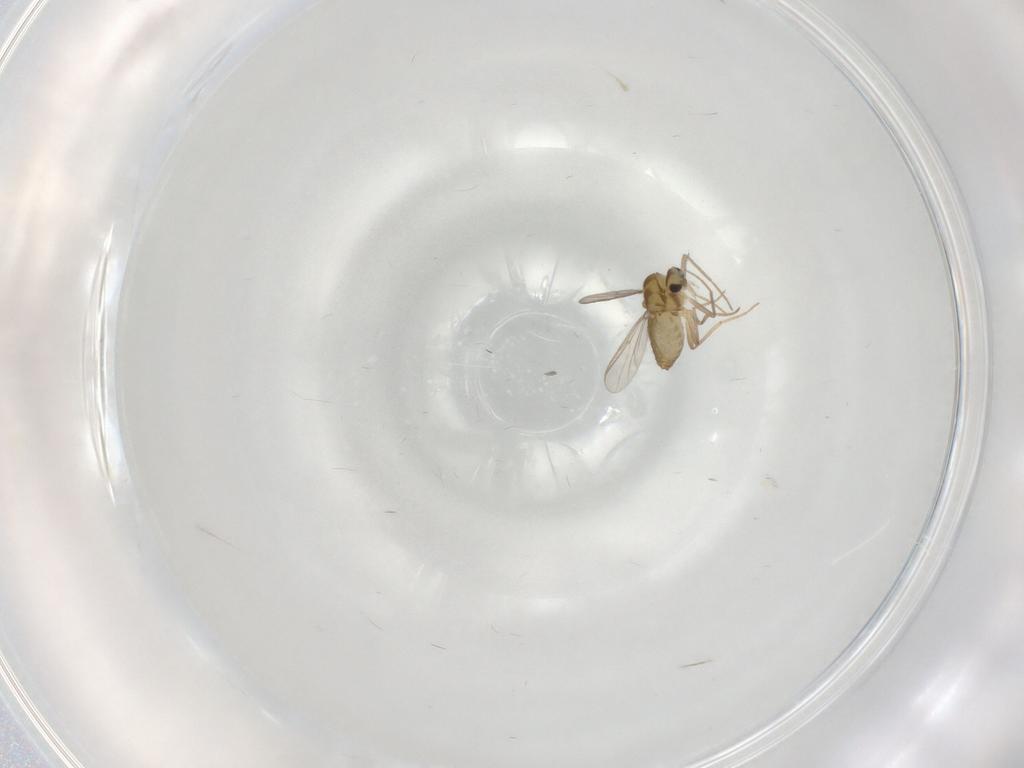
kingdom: Animalia
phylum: Arthropoda
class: Insecta
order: Diptera
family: Chironomidae
